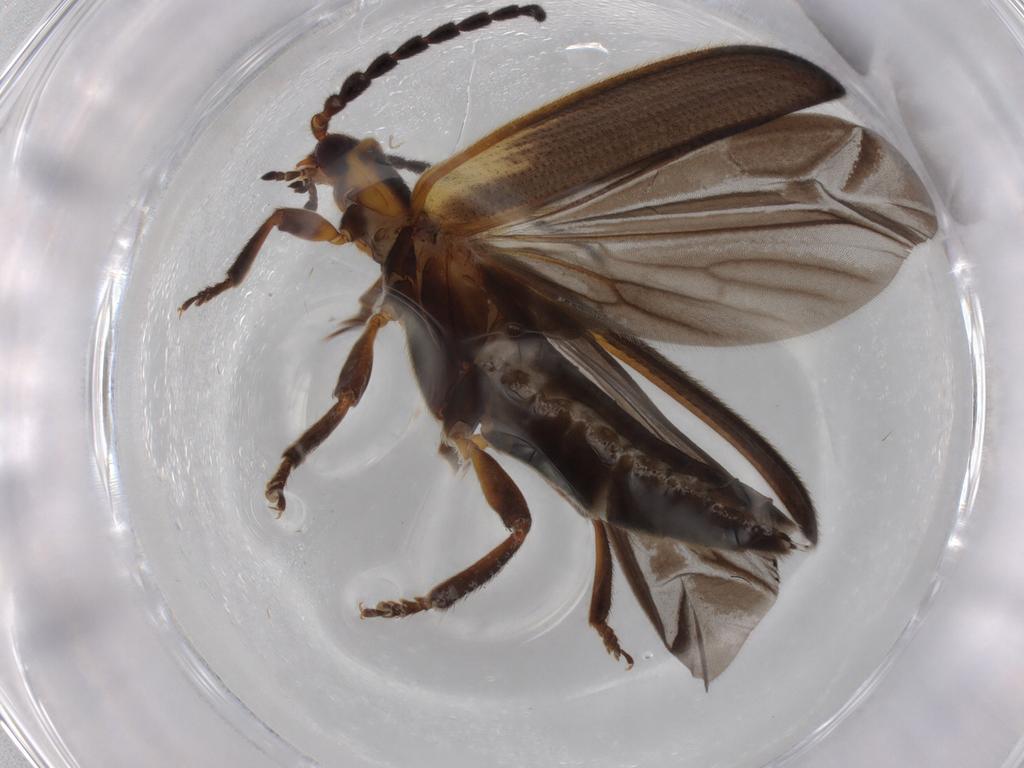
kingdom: Animalia
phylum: Arthropoda
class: Insecta
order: Coleoptera
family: Lycidae
